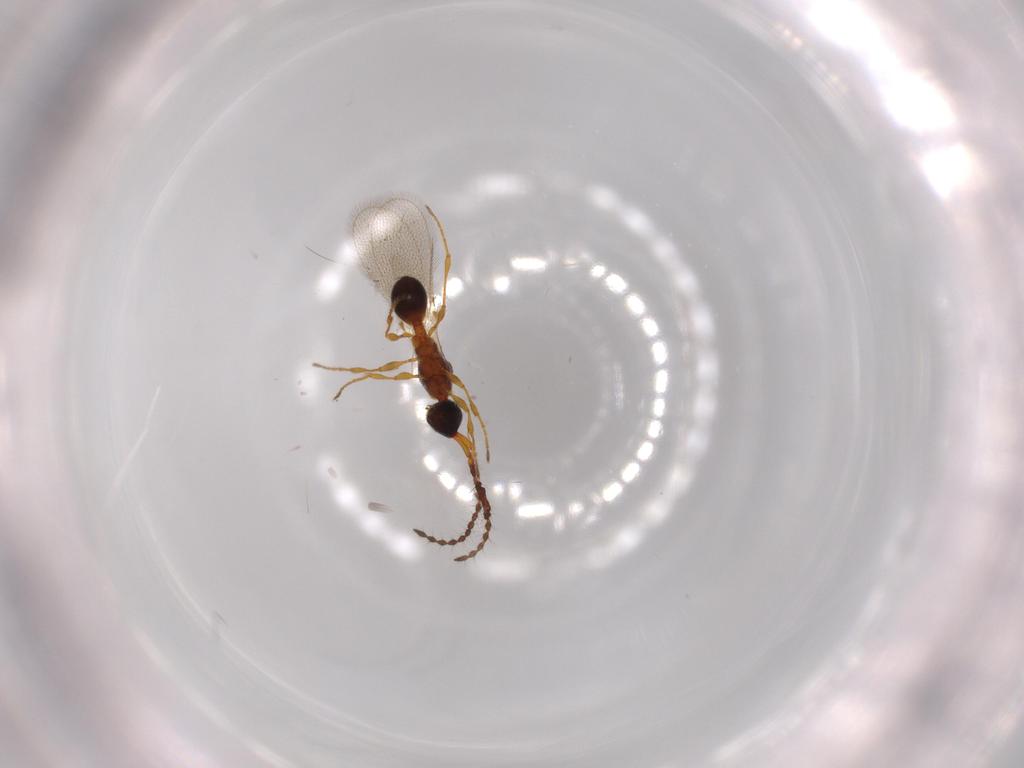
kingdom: Animalia
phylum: Arthropoda
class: Insecta
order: Hymenoptera
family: Diapriidae
